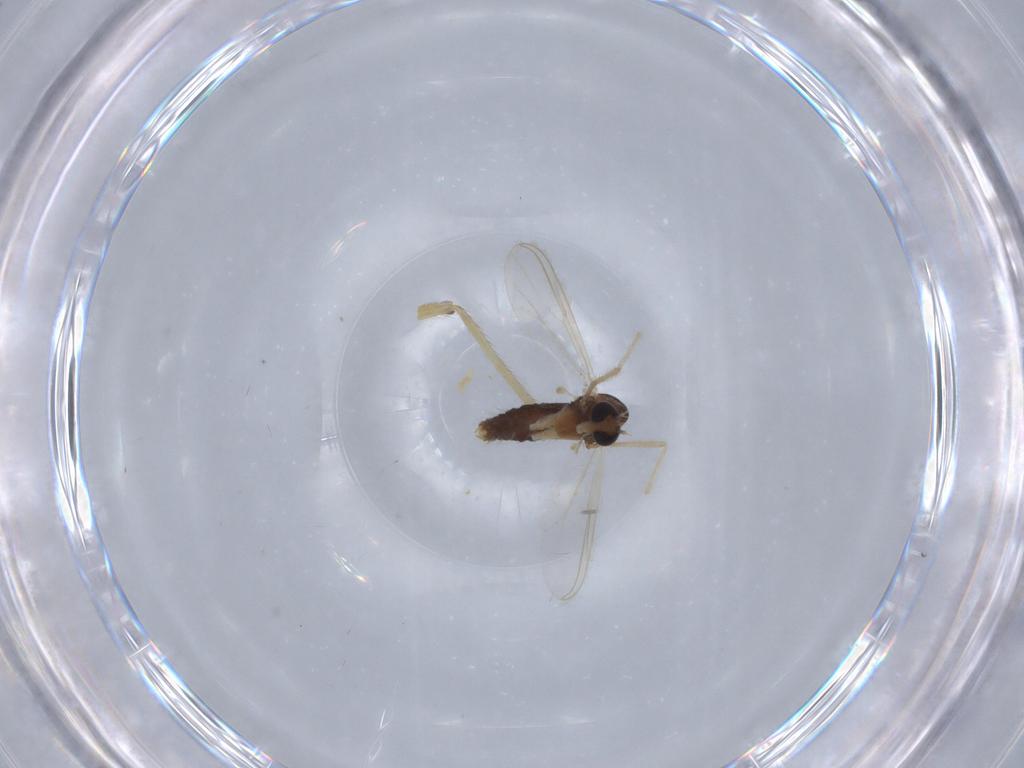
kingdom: Animalia
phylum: Arthropoda
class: Insecta
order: Diptera
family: Chironomidae
